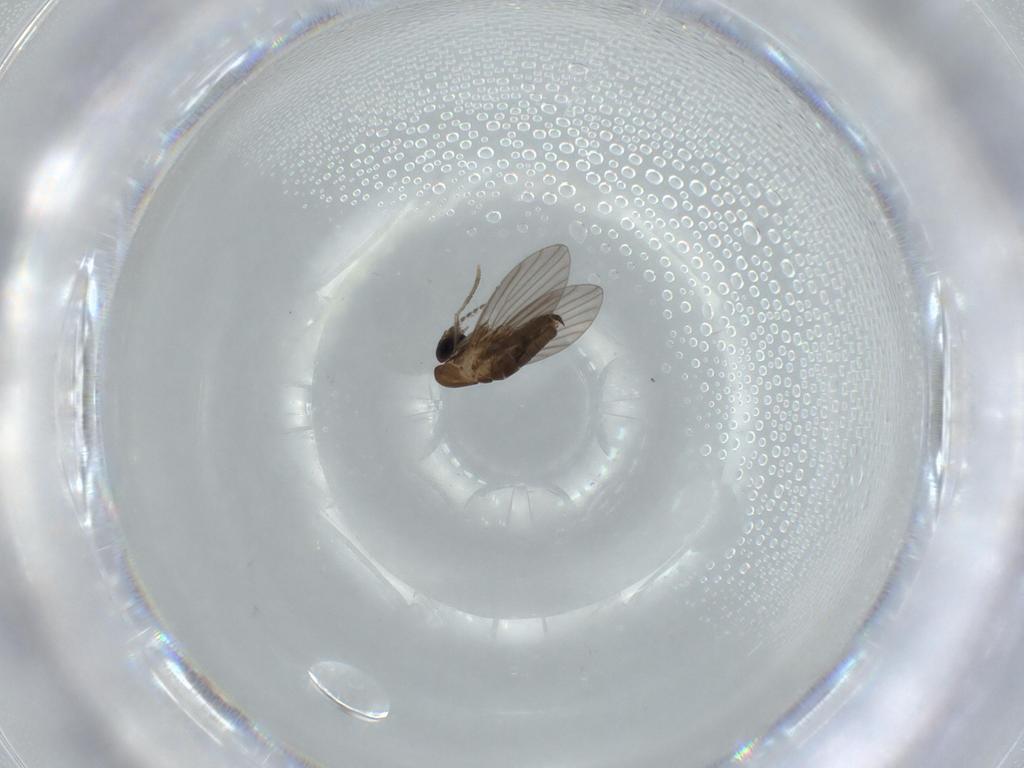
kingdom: Animalia
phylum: Arthropoda
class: Insecta
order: Diptera
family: Psychodidae
